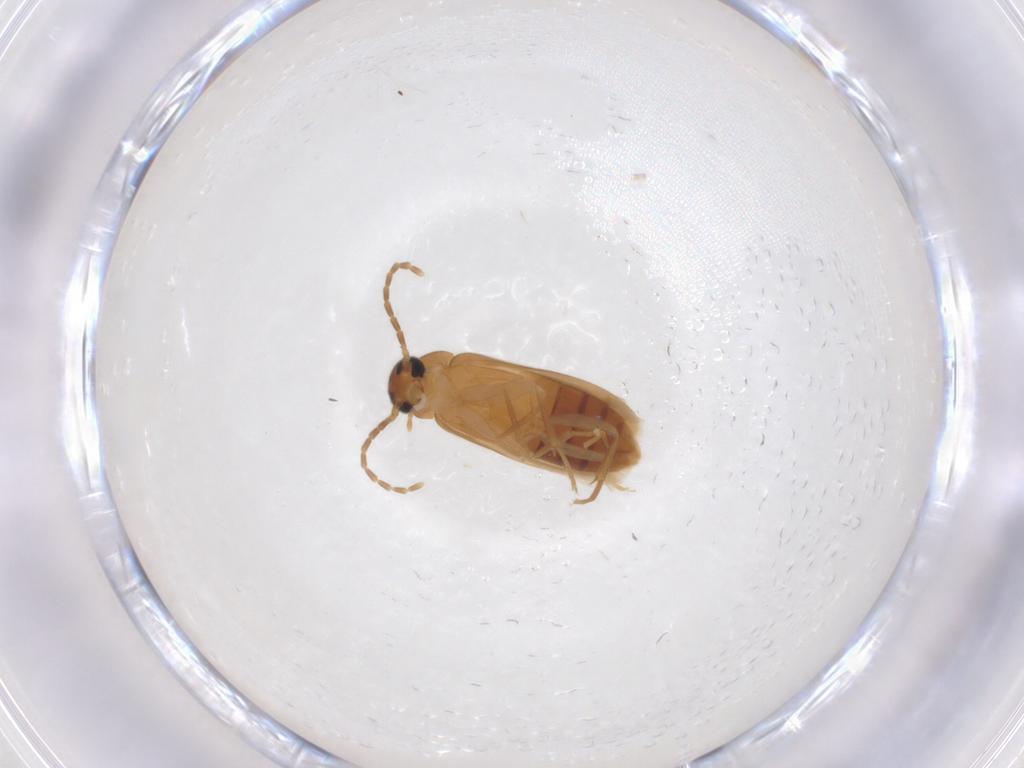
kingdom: Animalia
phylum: Arthropoda
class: Insecta
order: Coleoptera
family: Scraptiidae
